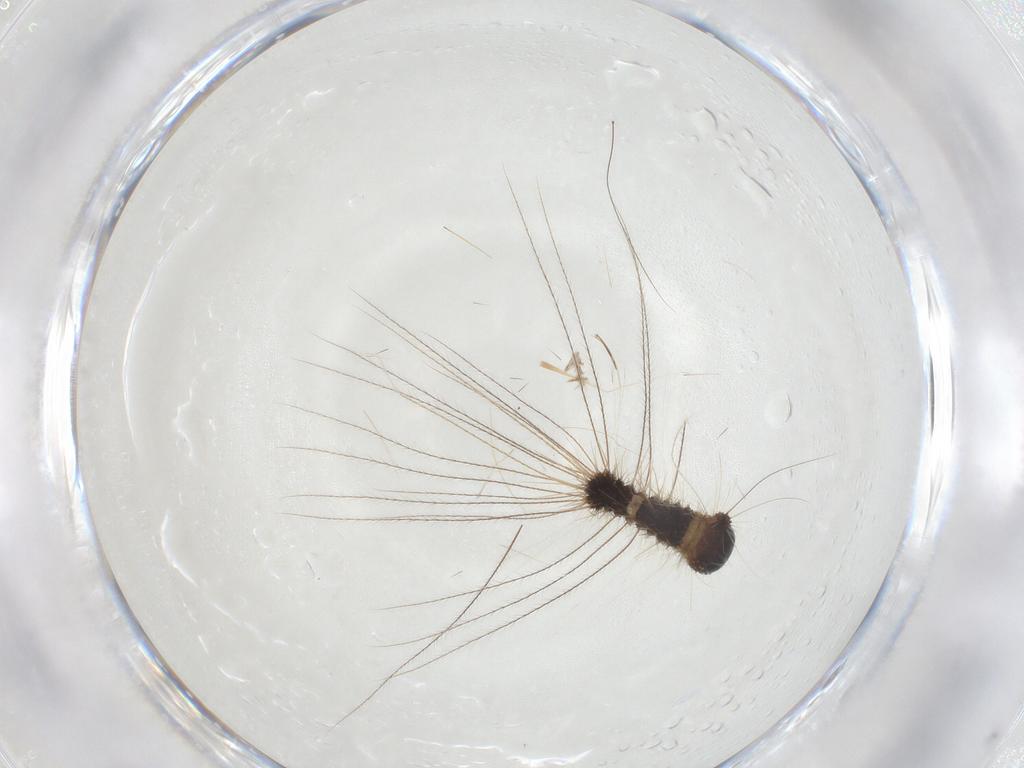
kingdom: Animalia
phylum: Arthropoda
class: Insecta
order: Lepidoptera
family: Erebidae
